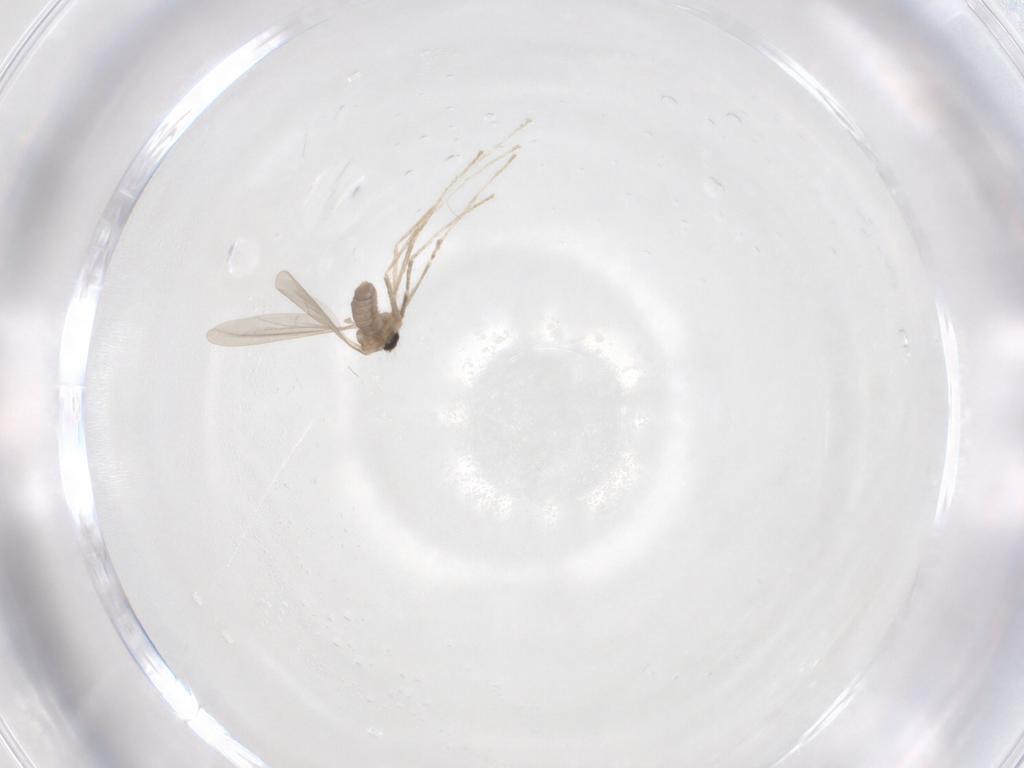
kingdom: Animalia
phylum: Arthropoda
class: Insecta
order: Diptera
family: Cecidomyiidae
